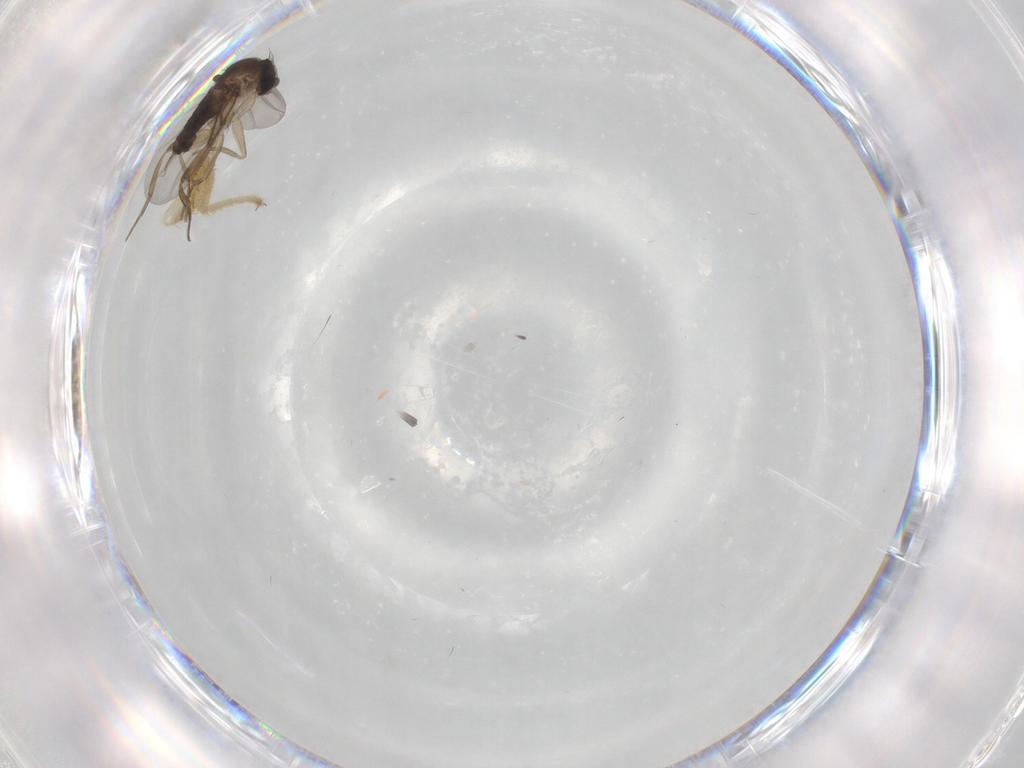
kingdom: Animalia
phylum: Arthropoda
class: Insecta
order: Diptera
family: Clusiidae
